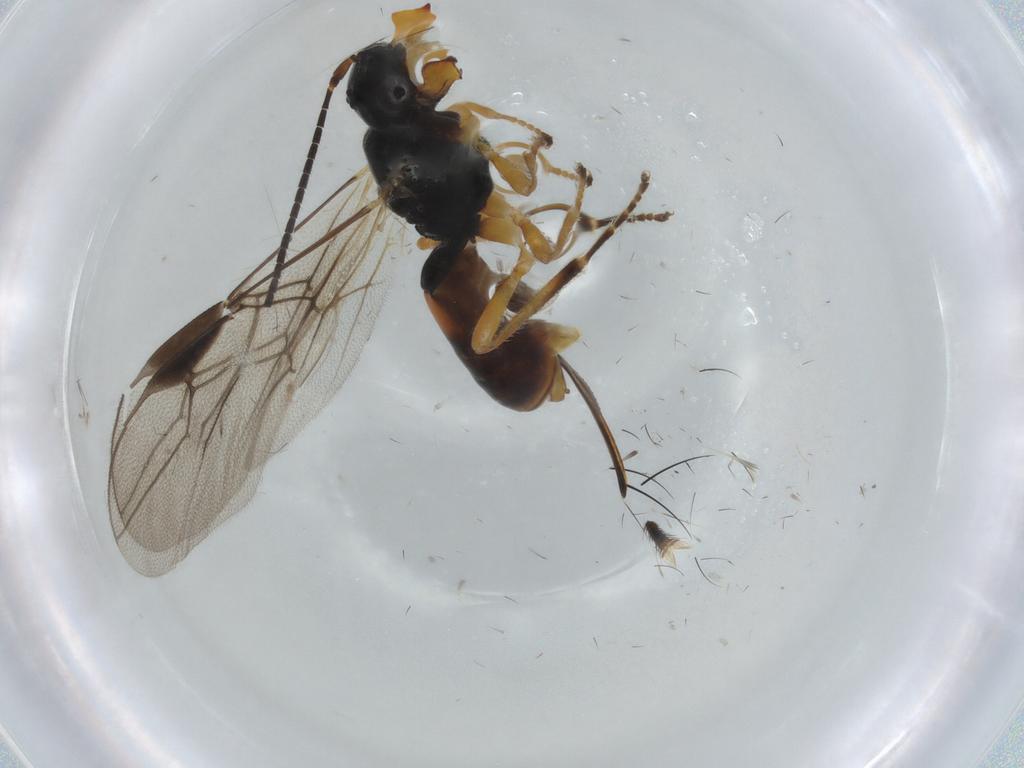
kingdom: Animalia
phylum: Arthropoda
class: Insecta
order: Hymenoptera
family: Braconidae
